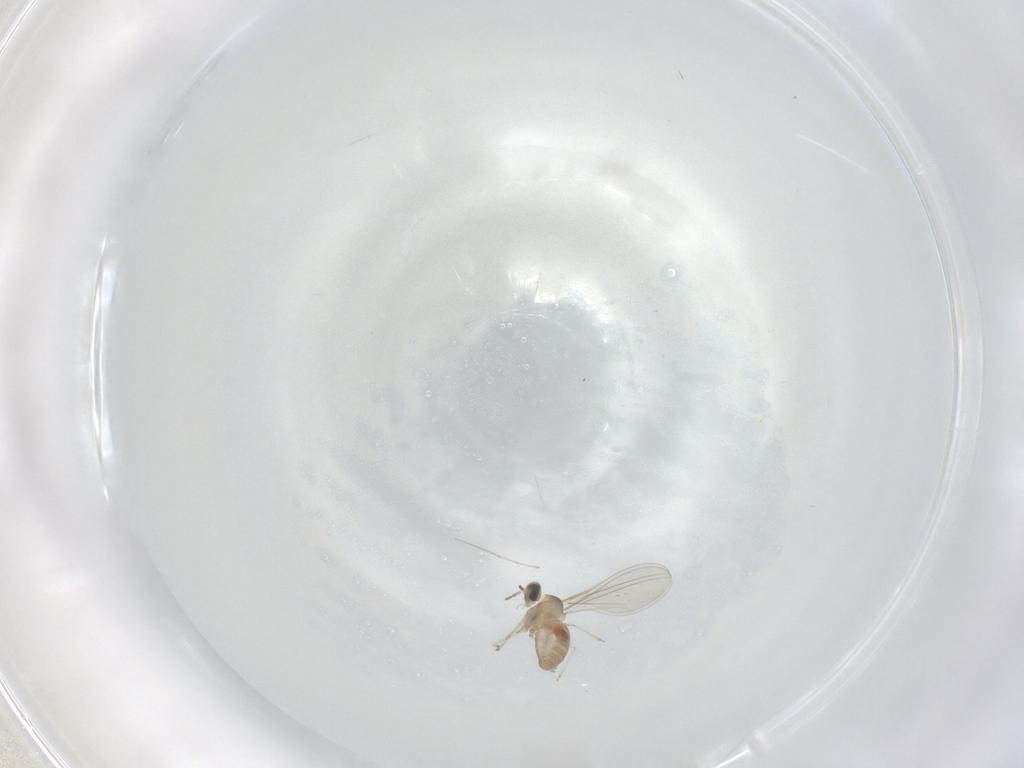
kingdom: Animalia
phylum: Arthropoda
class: Insecta
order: Diptera
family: Cecidomyiidae
